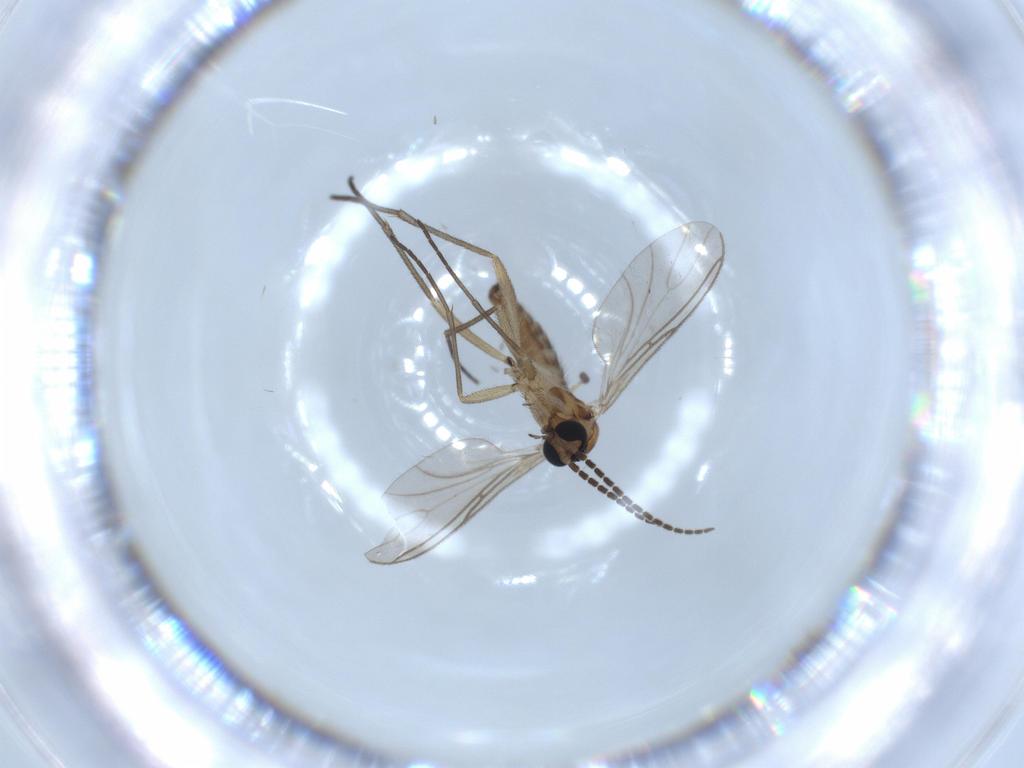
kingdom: Animalia
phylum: Arthropoda
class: Insecta
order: Diptera
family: Sciaridae
